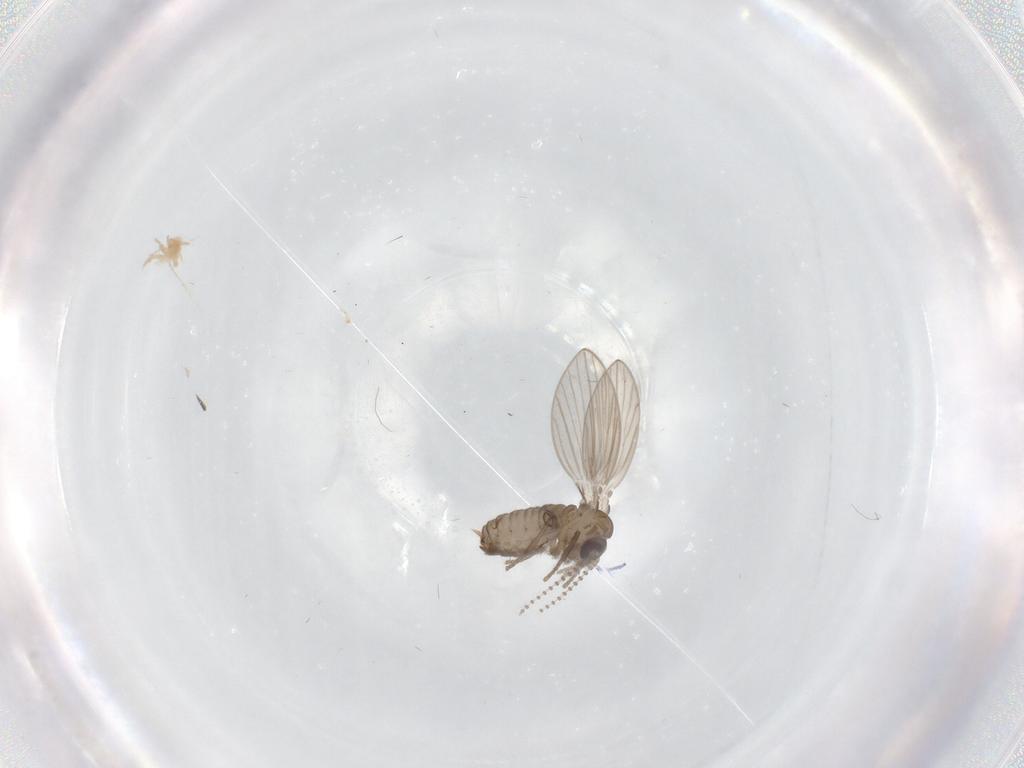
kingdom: Animalia
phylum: Arthropoda
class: Insecta
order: Diptera
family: Psychodidae
